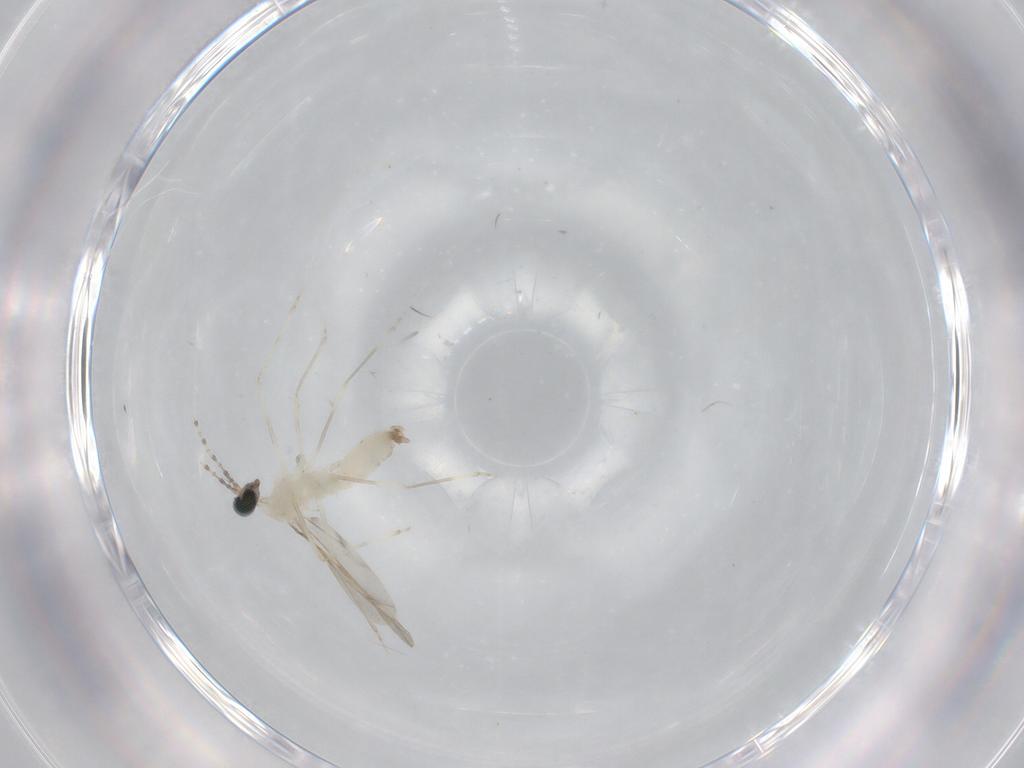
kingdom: Animalia
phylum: Arthropoda
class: Insecta
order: Diptera
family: Cecidomyiidae
